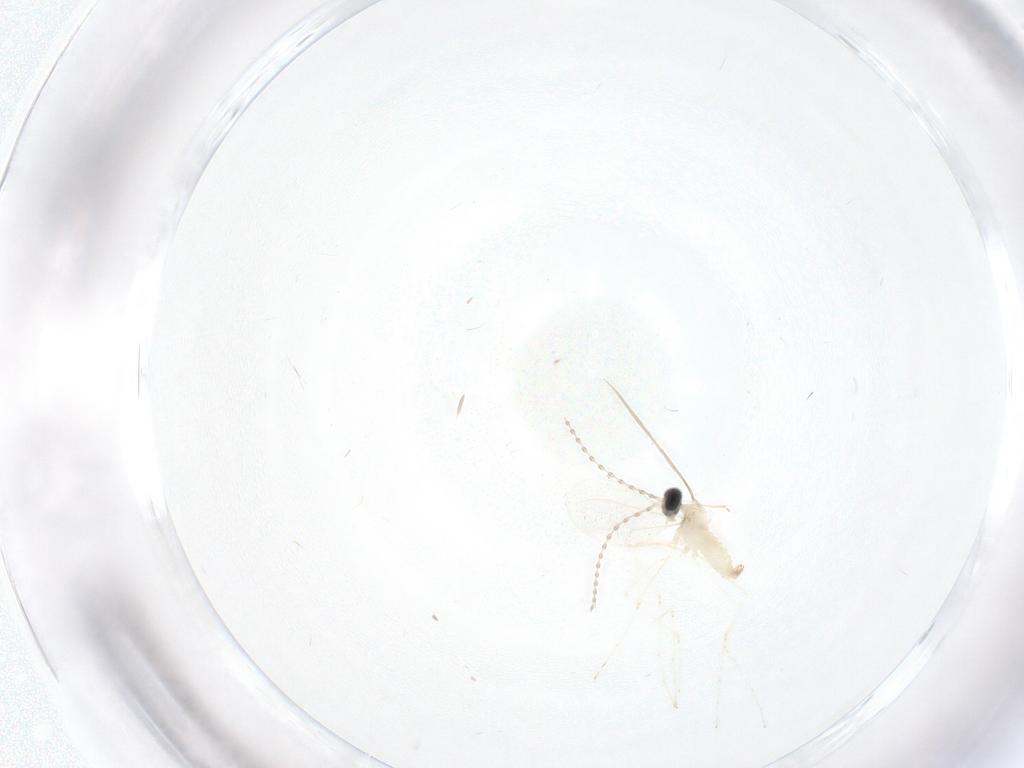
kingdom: Animalia
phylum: Arthropoda
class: Insecta
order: Diptera
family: Cecidomyiidae
